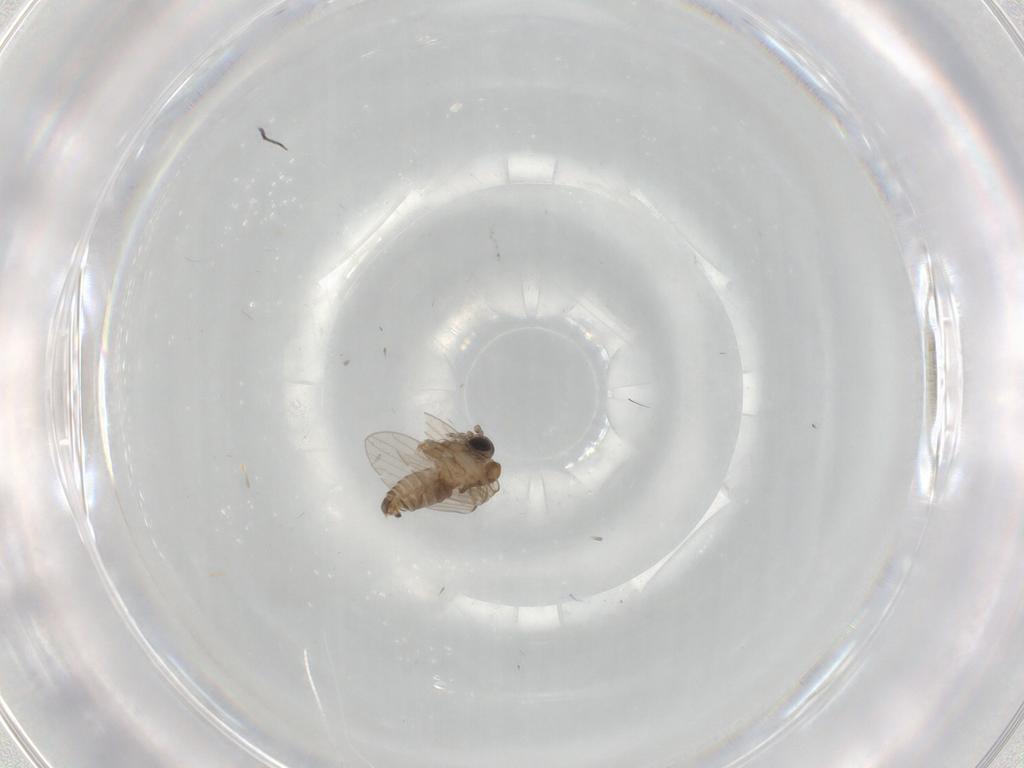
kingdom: Animalia
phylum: Arthropoda
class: Insecta
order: Diptera
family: Psychodidae
